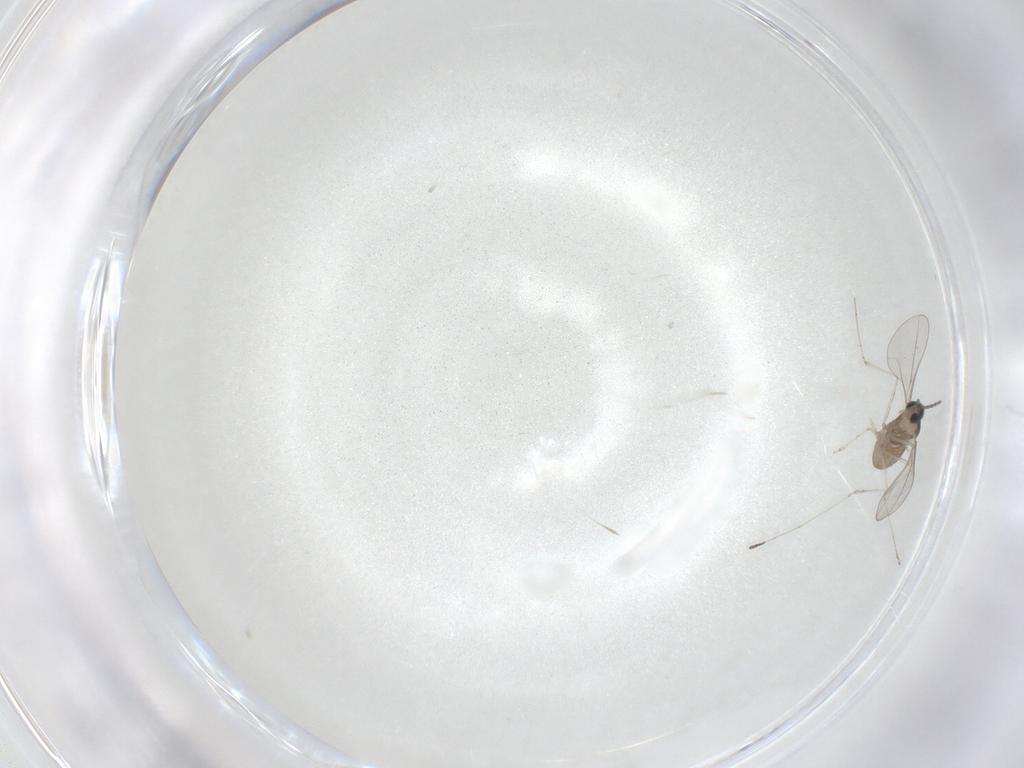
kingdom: Animalia
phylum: Arthropoda
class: Insecta
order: Diptera
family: Cecidomyiidae
